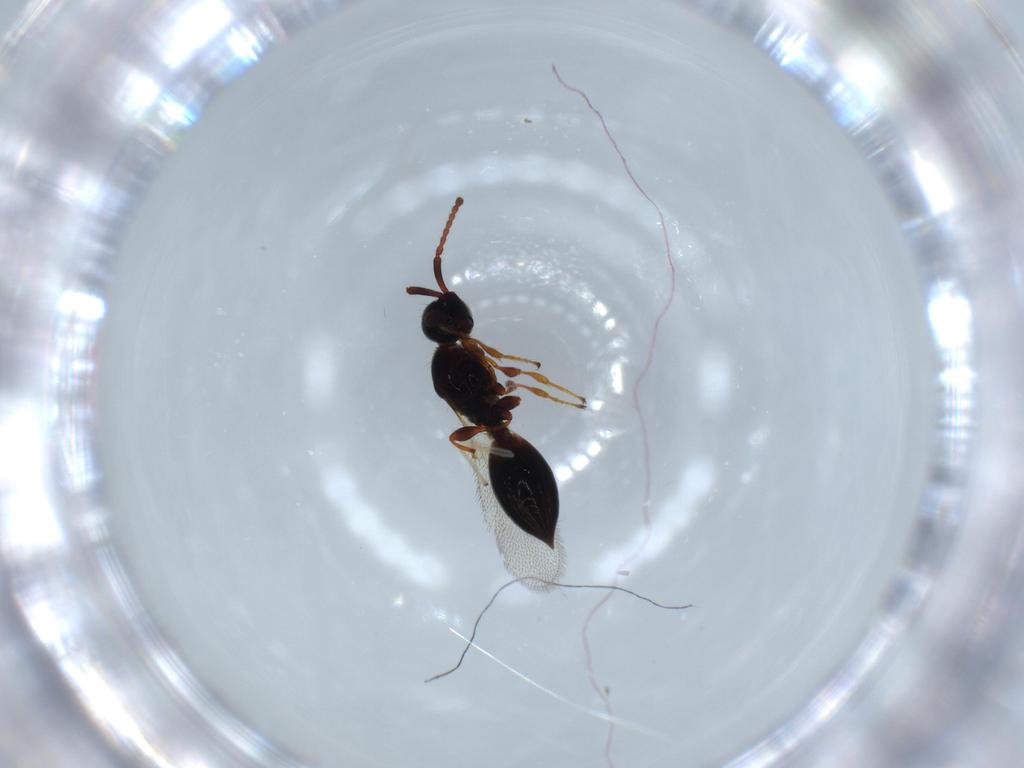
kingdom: Animalia
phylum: Arthropoda
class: Insecta
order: Hymenoptera
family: Diapriidae
